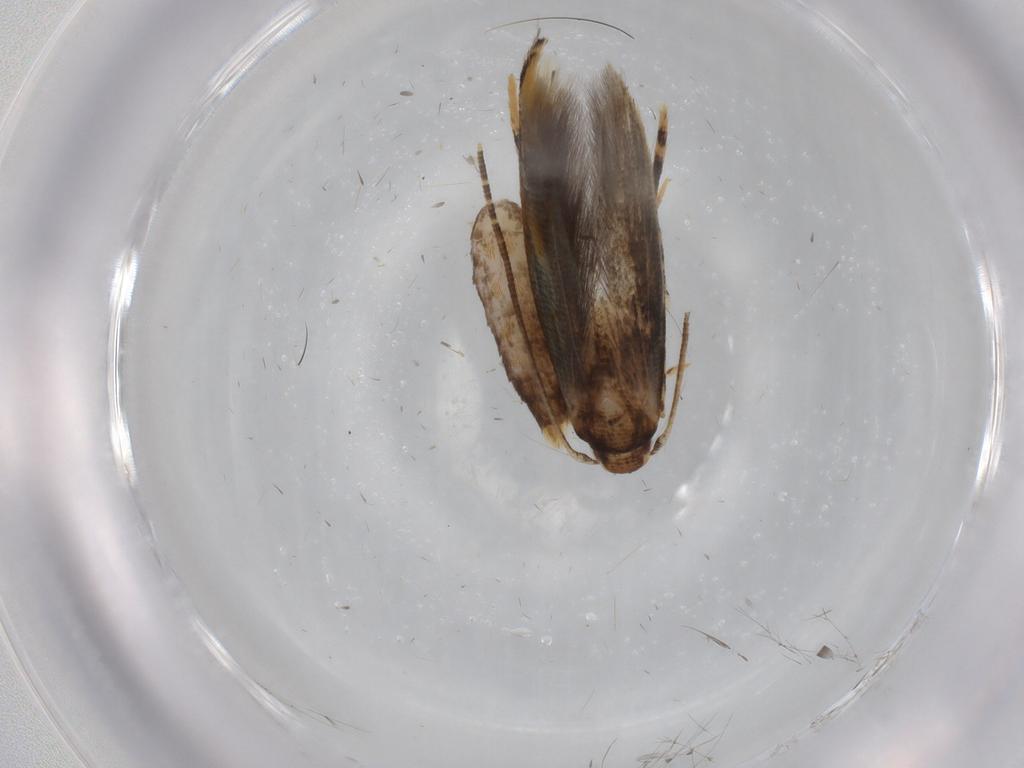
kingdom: Animalia
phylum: Arthropoda
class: Insecta
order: Lepidoptera
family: Momphidae
